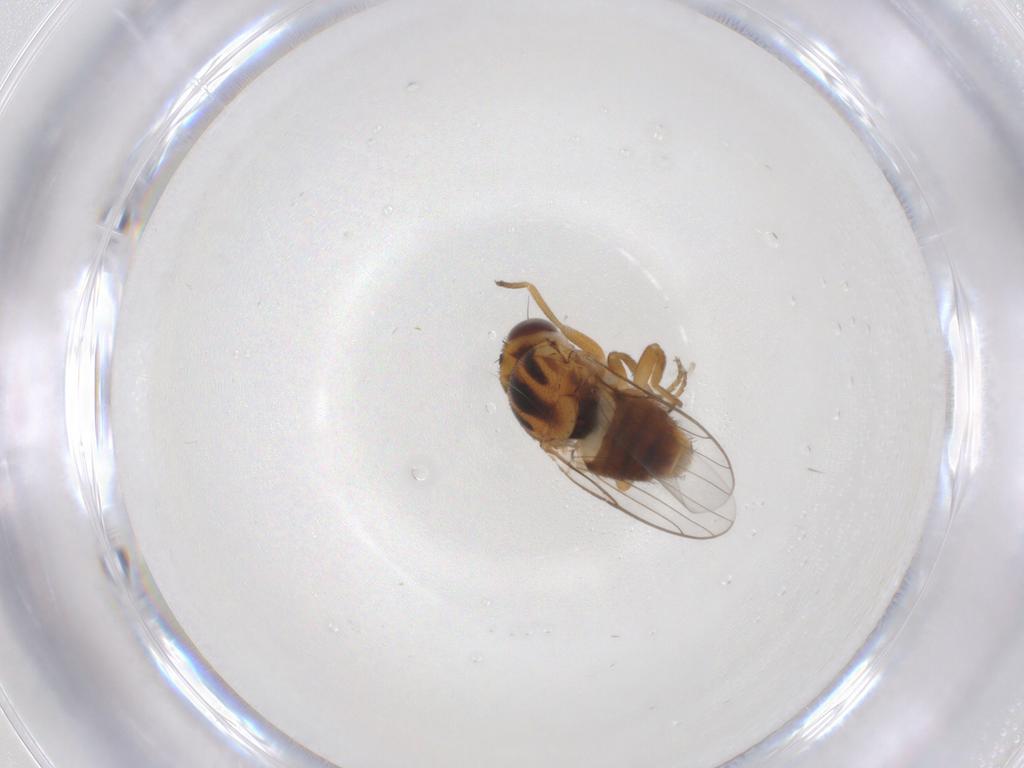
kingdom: Animalia
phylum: Arthropoda
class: Insecta
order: Diptera
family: Chloropidae
